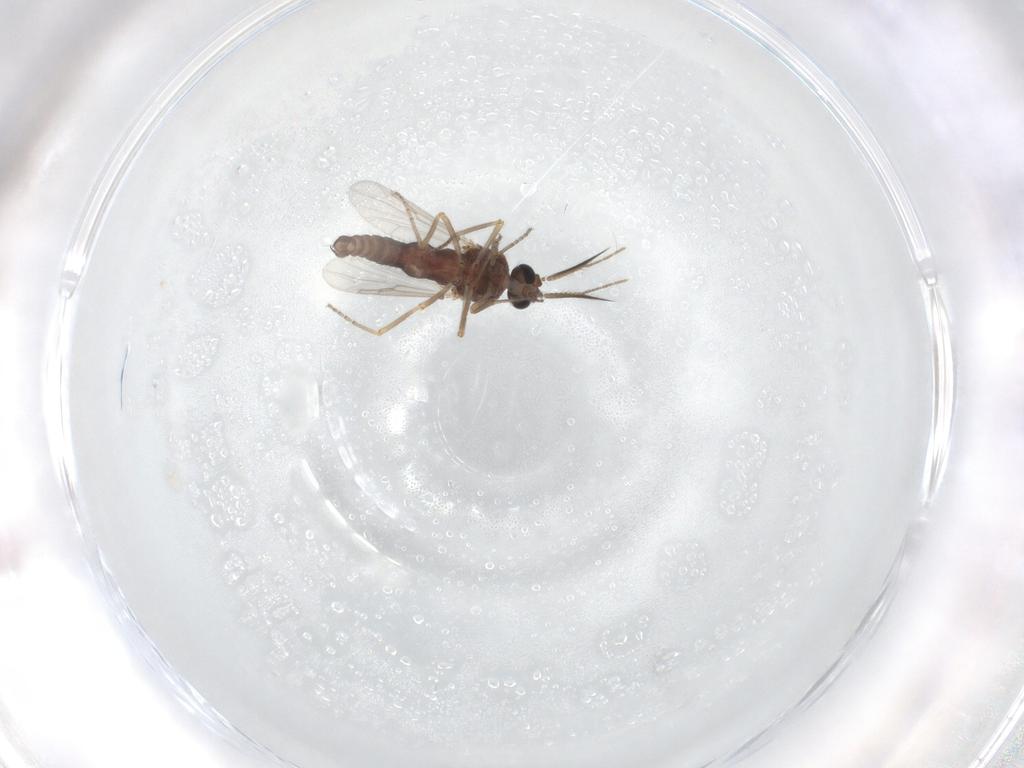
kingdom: Animalia
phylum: Arthropoda
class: Insecta
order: Diptera
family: Ceratopogonidae
